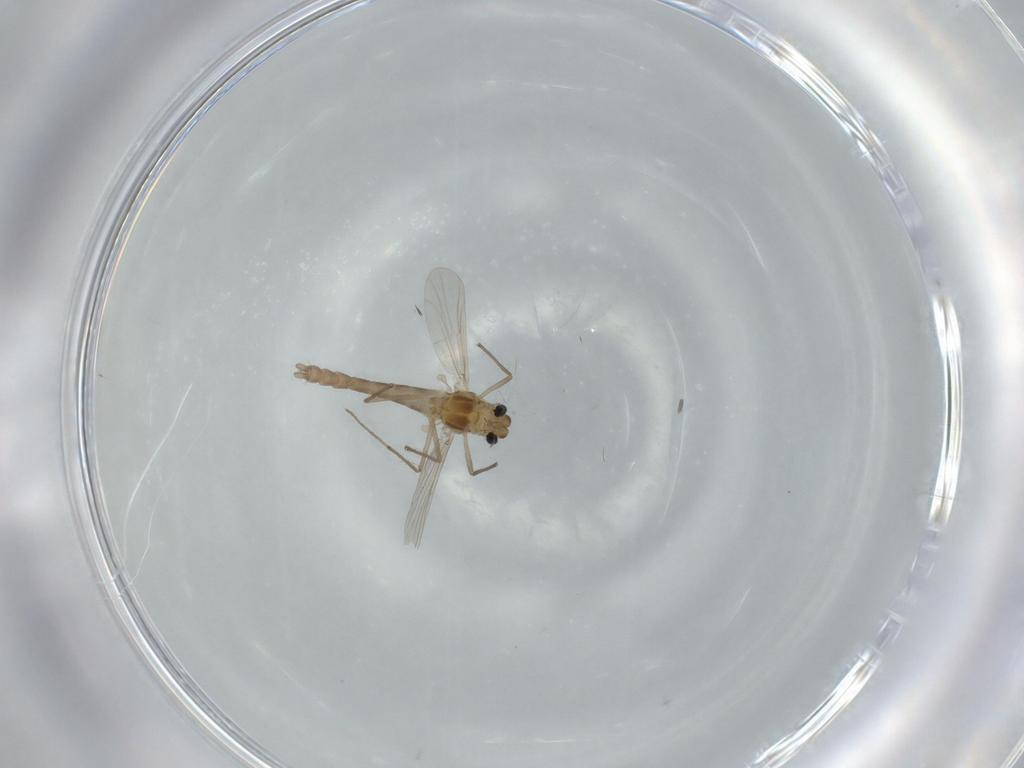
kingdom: Animalia
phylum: Arthropoda
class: Insecta
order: Diptera
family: Chironomidae
